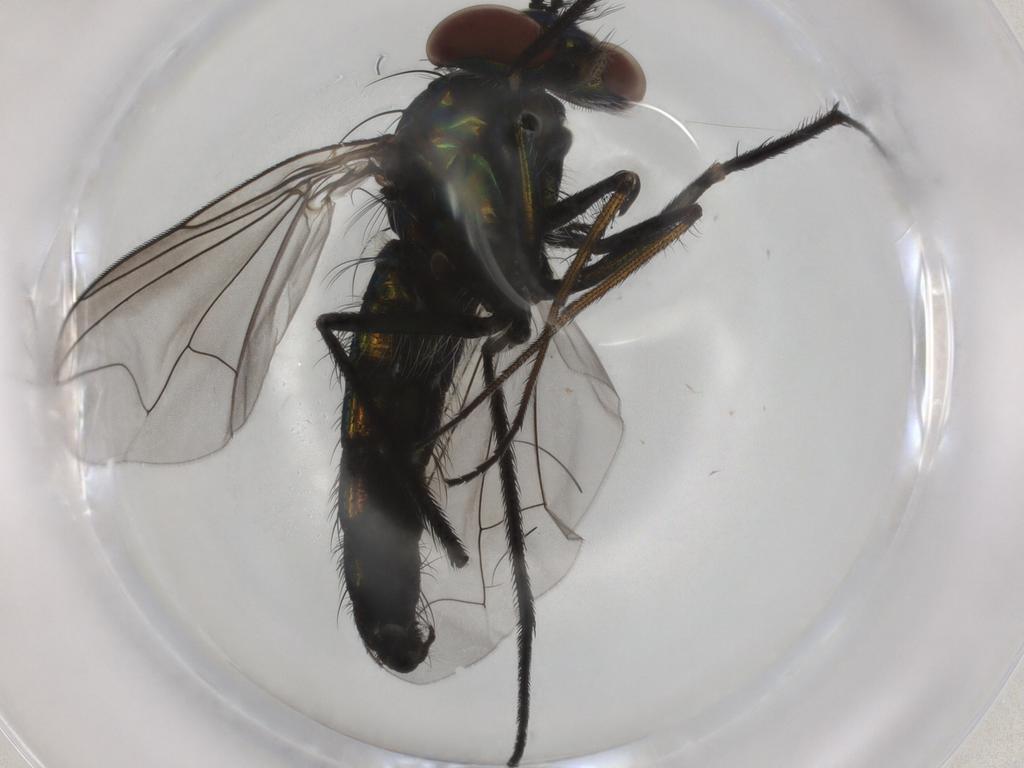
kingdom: Animalia
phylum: Arthropoda
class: Insecta
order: Diptera
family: Dolichopodidae
